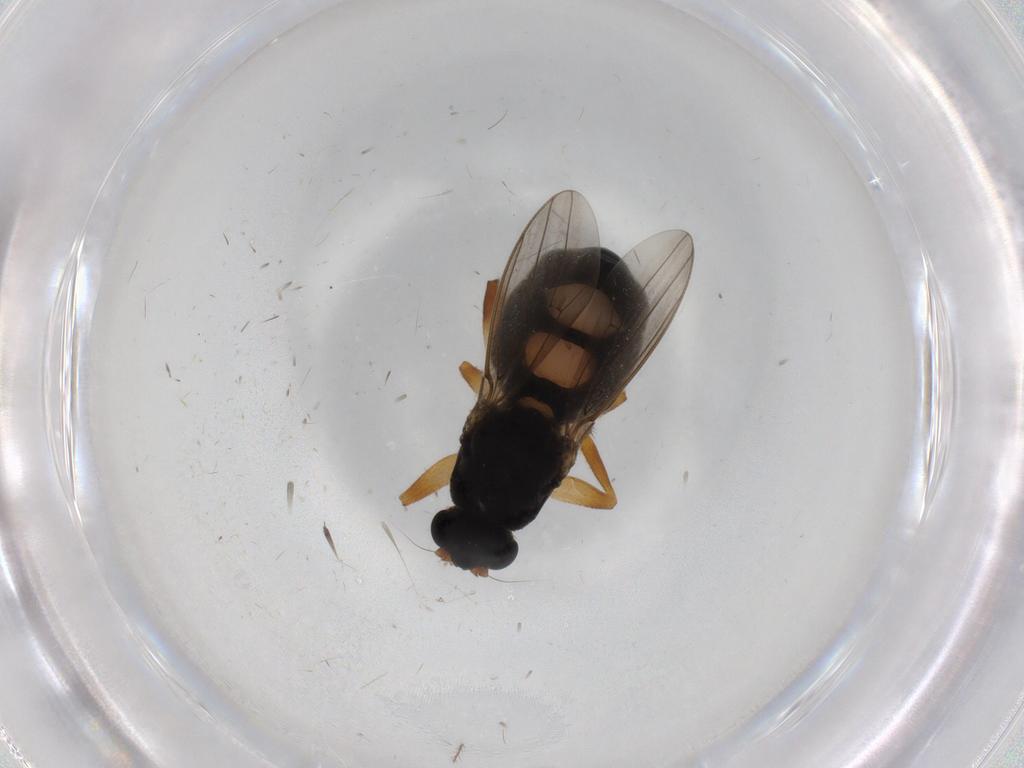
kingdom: Animalia
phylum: Arthropoda
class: Insecta
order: Diptera
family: Sphaeroceridae
